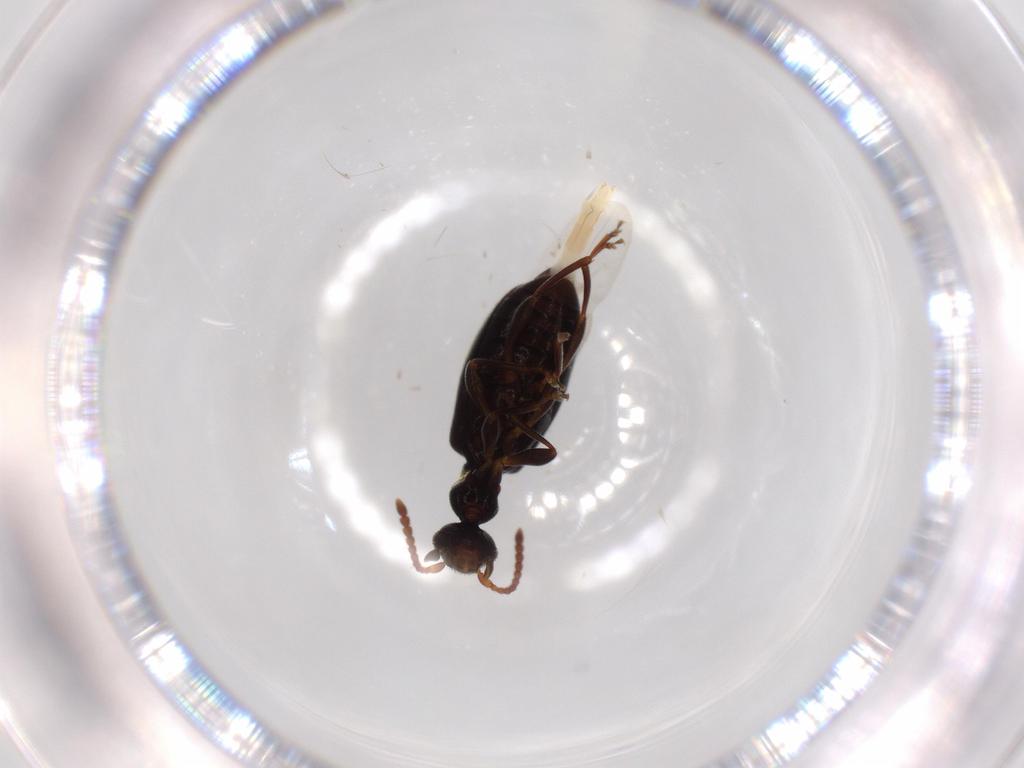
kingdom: Animalia
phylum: Arthropoda
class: Insecta
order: Coleoptera
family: Anthicidae
